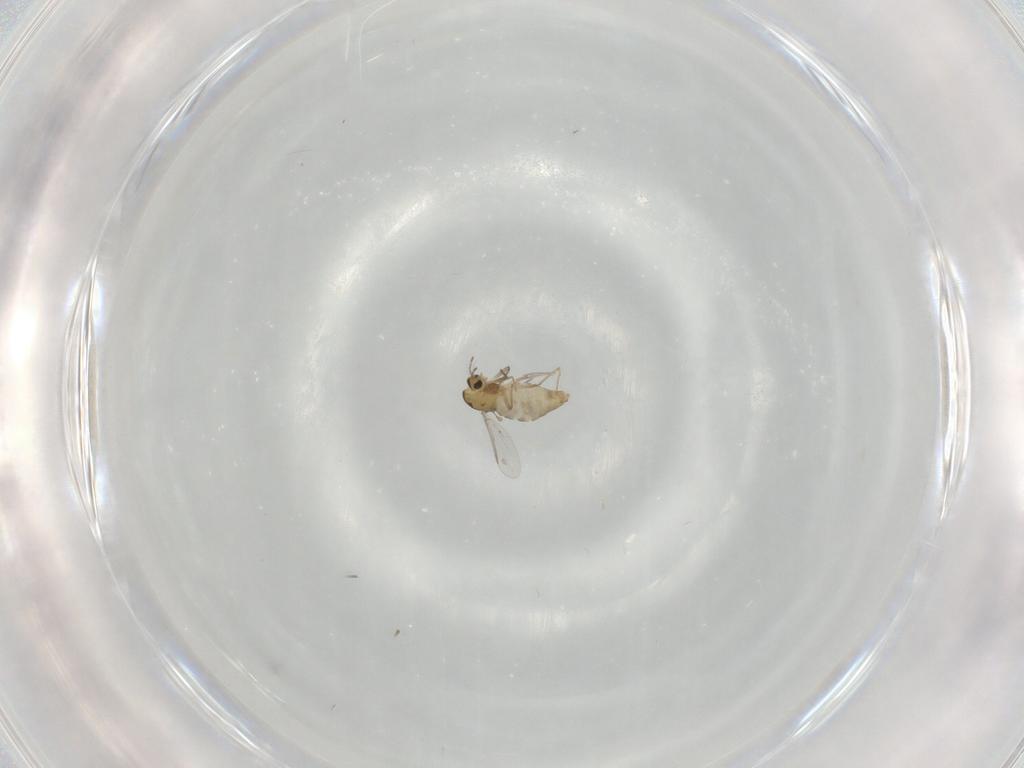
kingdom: Animalia
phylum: Arthropoda
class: Insecta
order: Diptera
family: Chironomidae
